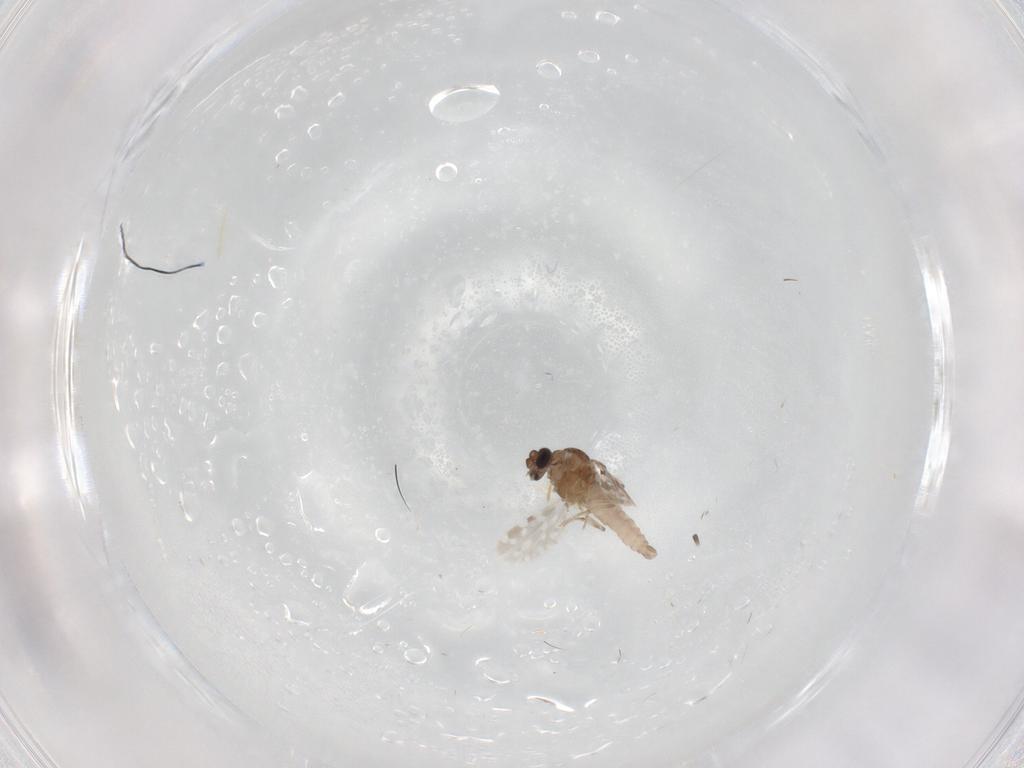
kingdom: Animalia
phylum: Arthropoda
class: Insecta
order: Diptera
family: Ceratopogonidae
